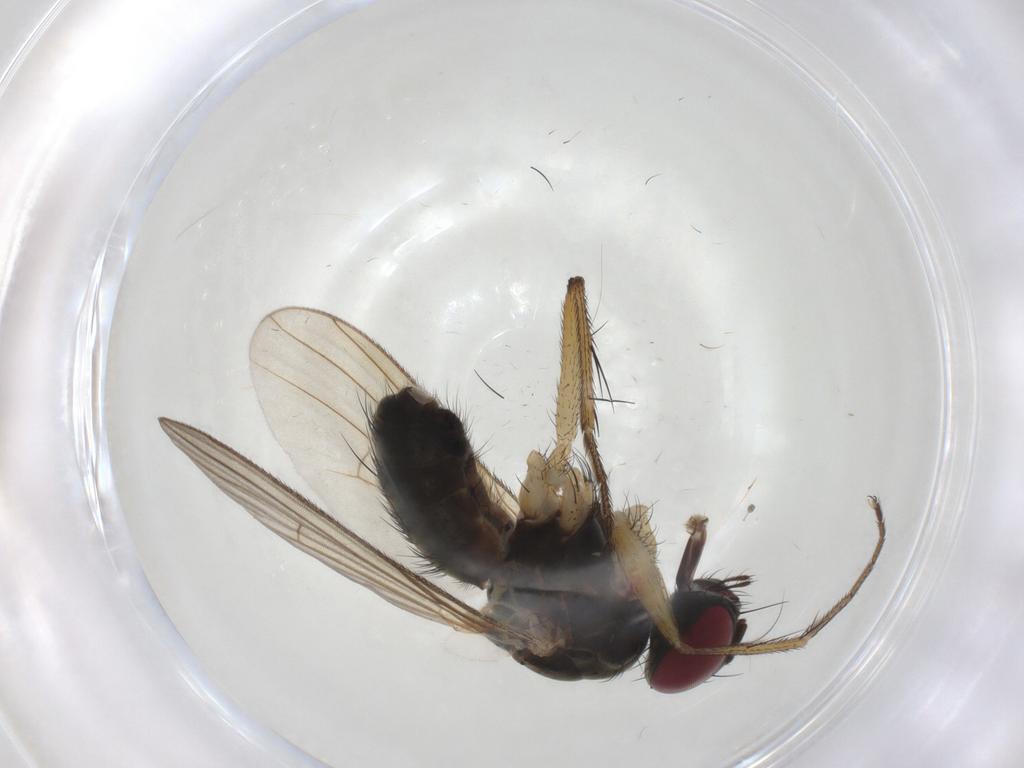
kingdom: Animalia
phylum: Arthropoda
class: Insecta
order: Diptera
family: Muscidae
